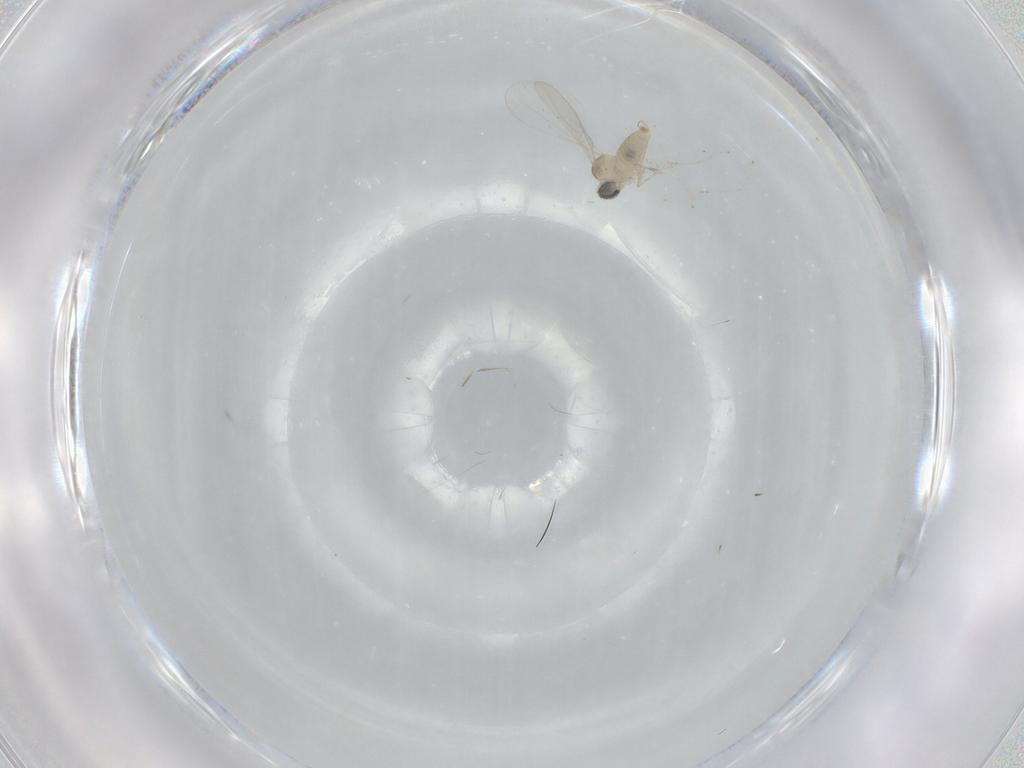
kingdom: Animalia
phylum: Arthropoda
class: Insecta
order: Diptera
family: Cecidomyiidae
